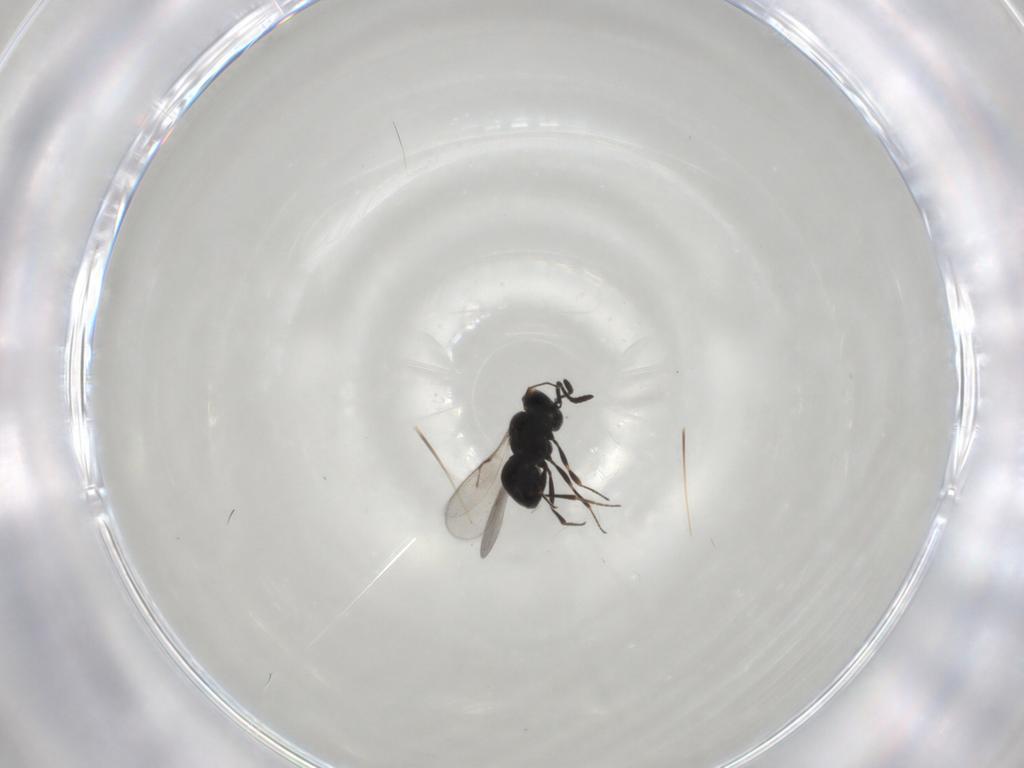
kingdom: Animalia
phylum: Arthropoda
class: Insecta
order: Hymenoptera
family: Scelionidae
